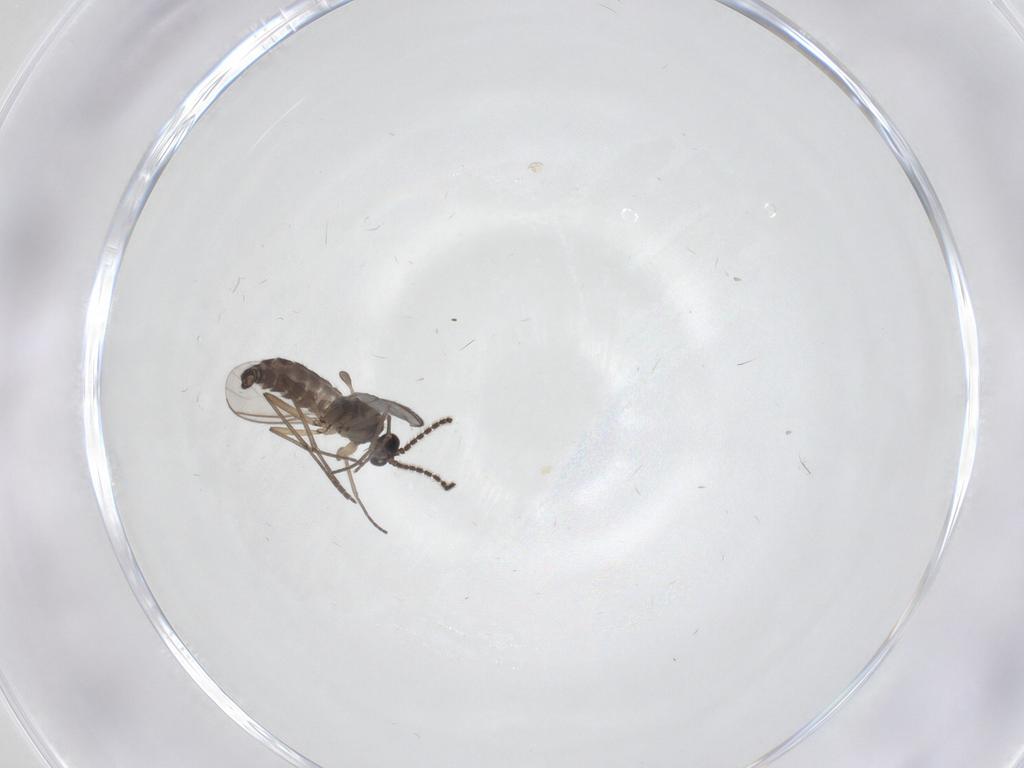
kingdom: Animalia
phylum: Arthropoda
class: Insecta
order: Diptera
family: Sciaridae
